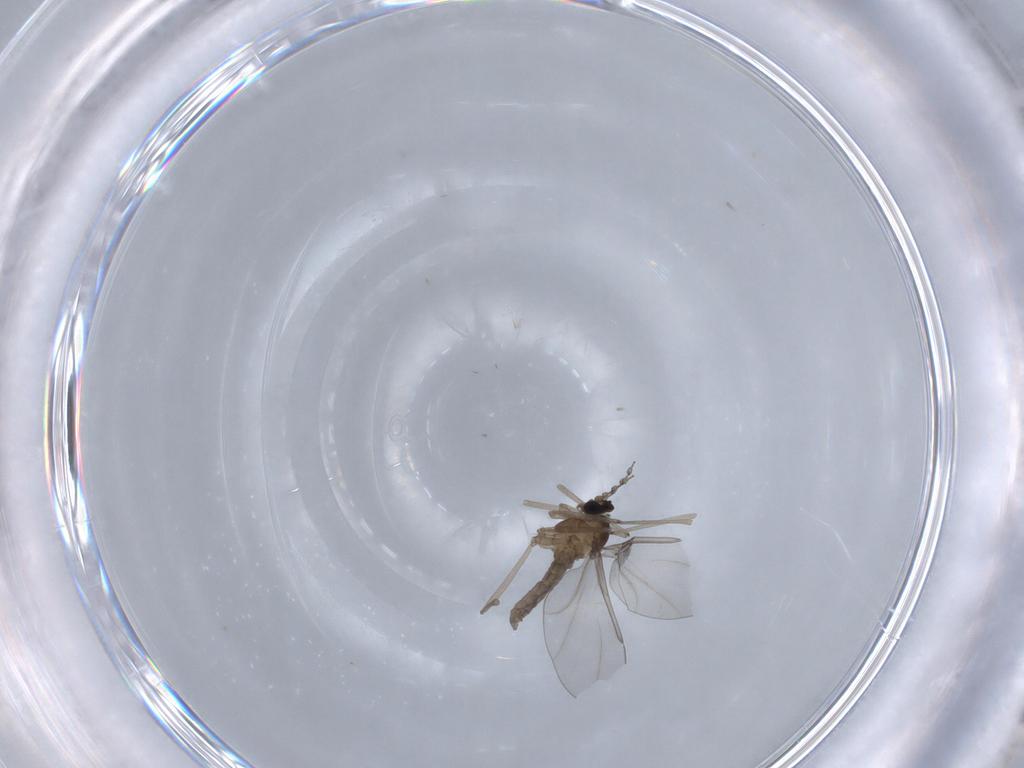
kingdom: Animalia
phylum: Arthropoda
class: Insecta
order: Diptera
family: Cecidomyiidae
